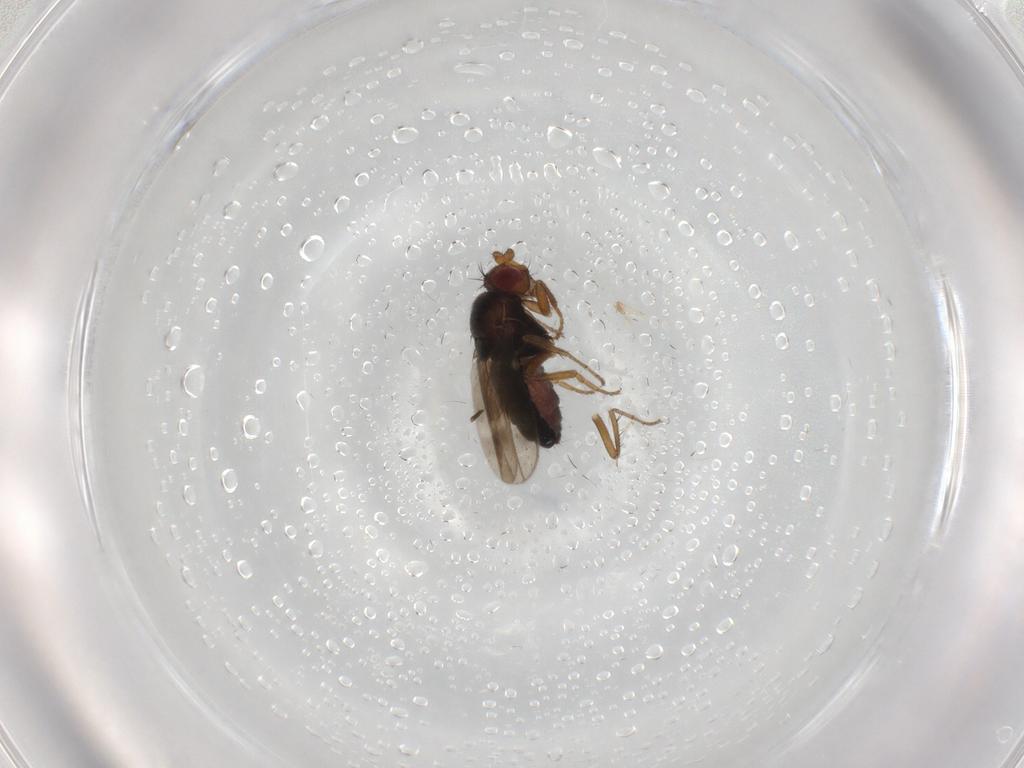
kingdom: Animalia
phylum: Arthropoda
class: Insecta
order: Diptera
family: Sphaeroceridae
